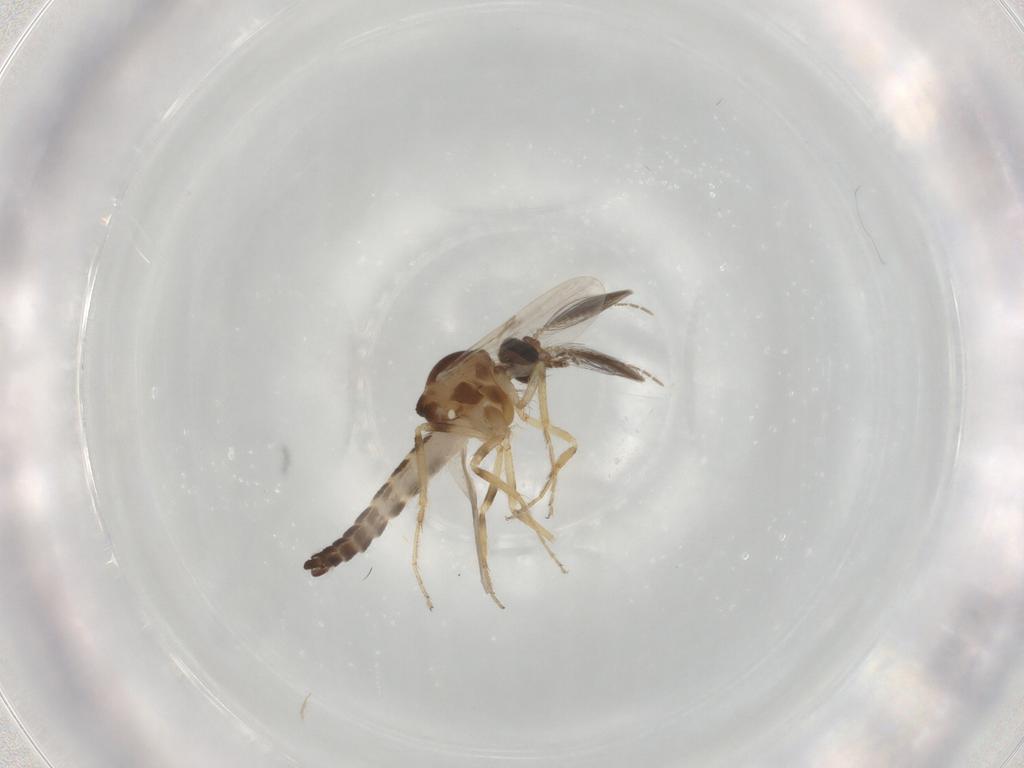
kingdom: Animalia
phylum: Arthropoda
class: Insecta
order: Diptera
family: Ceratopogonidae
